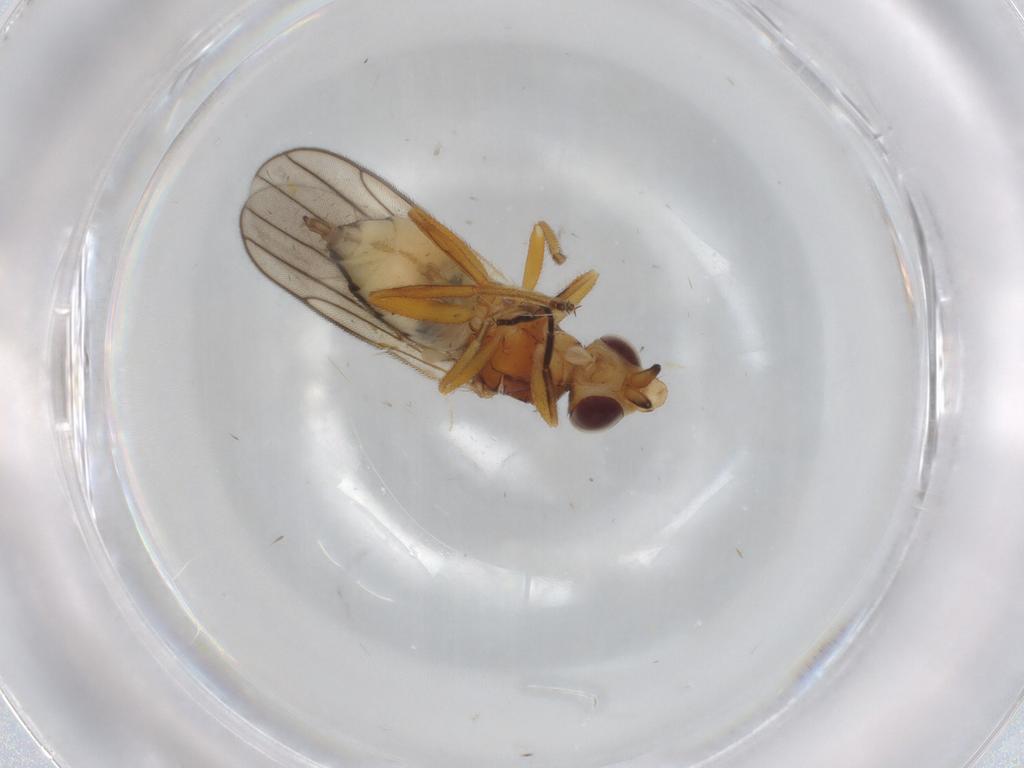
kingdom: Animalia
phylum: Arthropoda
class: Insecta
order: Diptera
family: Chloropidae
